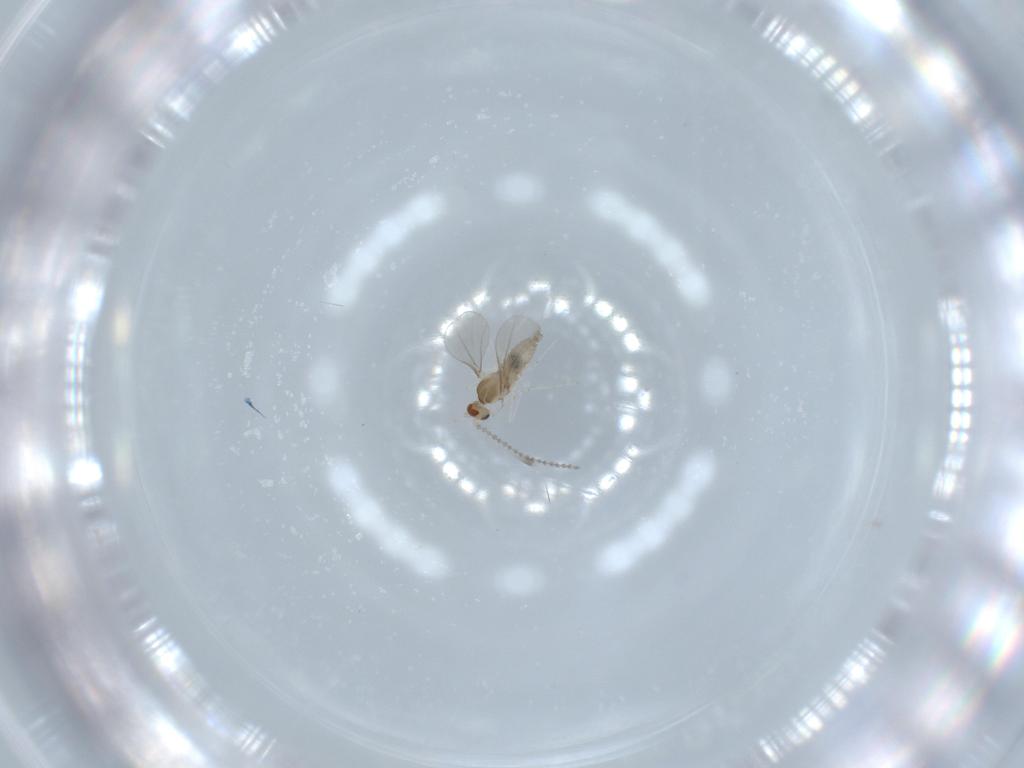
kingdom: Animalia
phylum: Arthropoda
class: Insecta
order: Diptera
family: Cecidomyiidae
